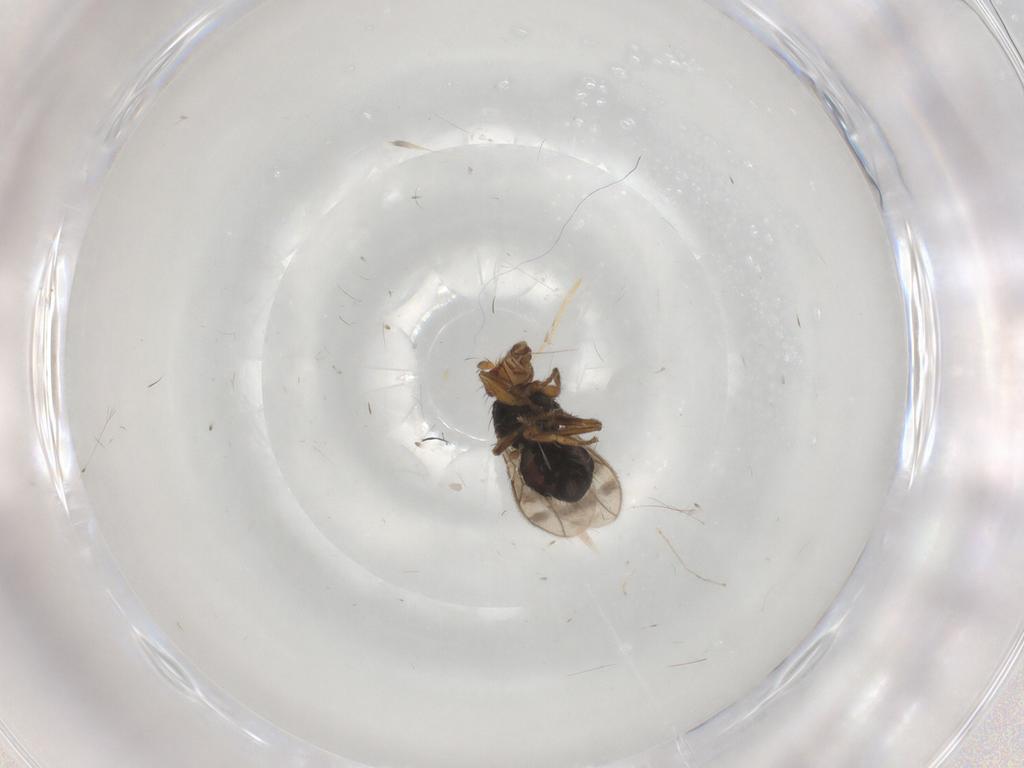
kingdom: Animalia
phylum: Arthropoda
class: Insecta
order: Diptera
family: Sphaeroceridae
